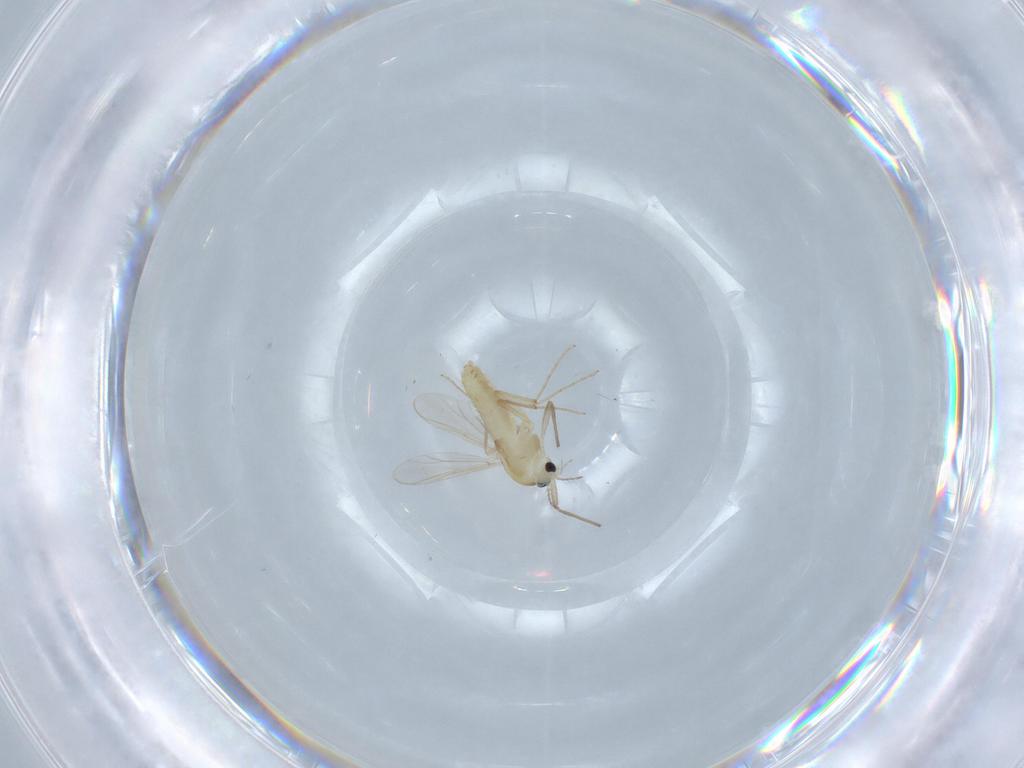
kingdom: Animalia
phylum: Arthropoda
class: Insecta
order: Diptera
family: Chironomidae
